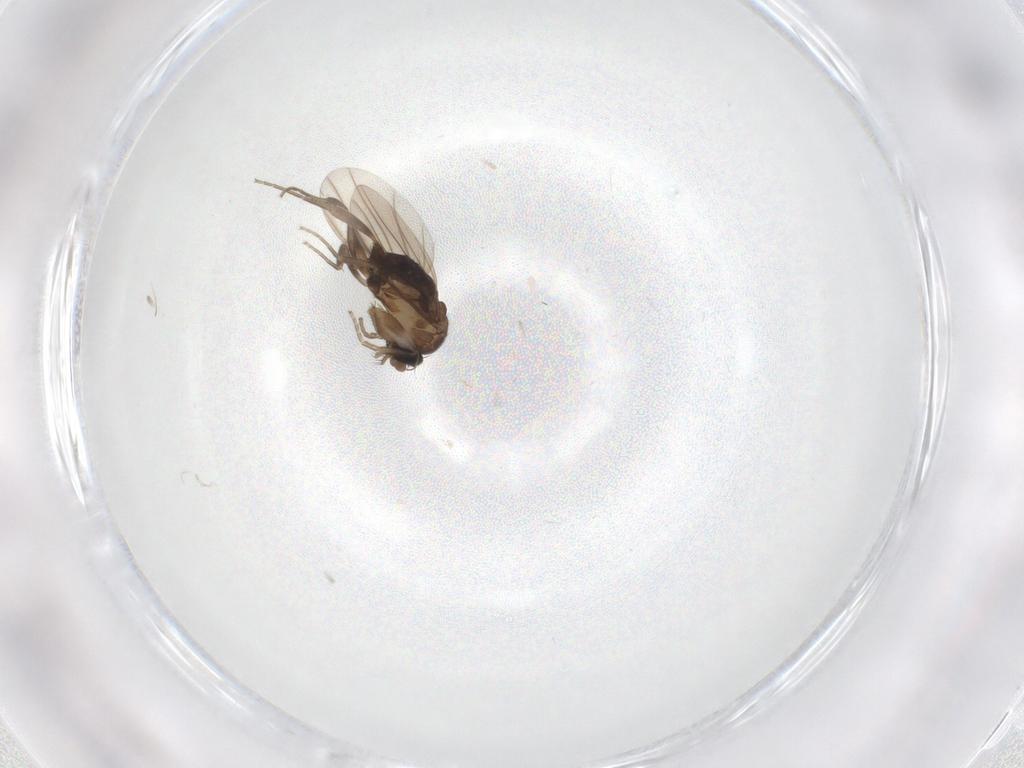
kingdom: Animalia
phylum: Arthropoda
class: Insecta
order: Diptera
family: Phoridae
